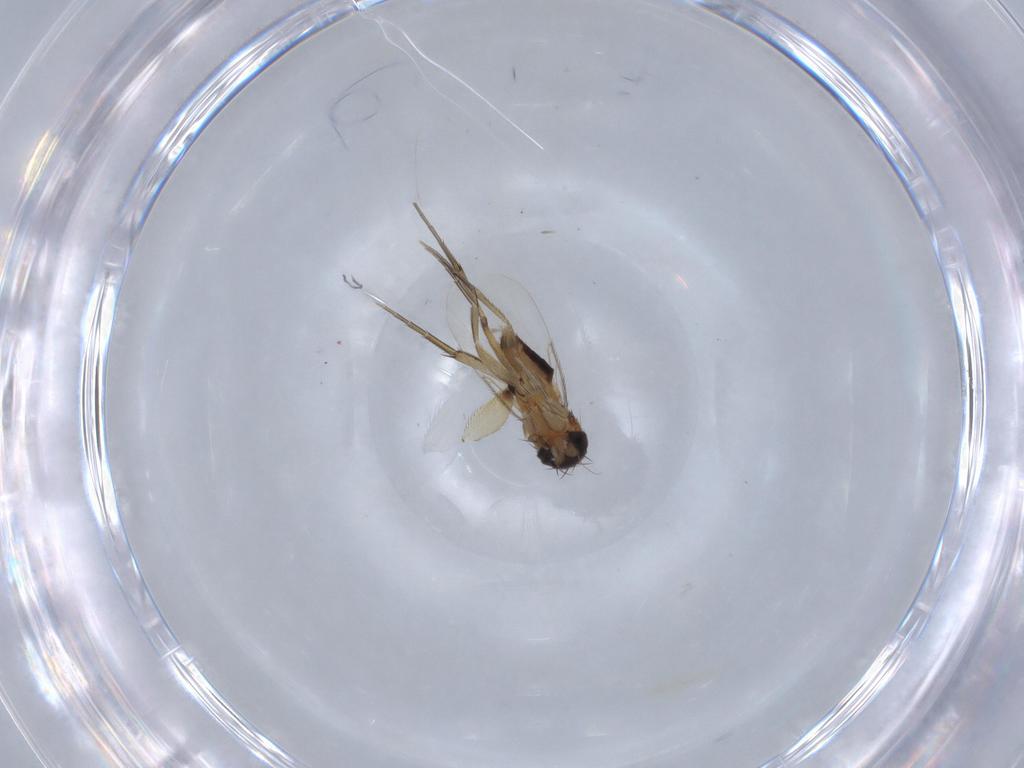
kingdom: Animalia
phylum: Arthropoda
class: Insecta
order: Diptera
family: Phoridae
